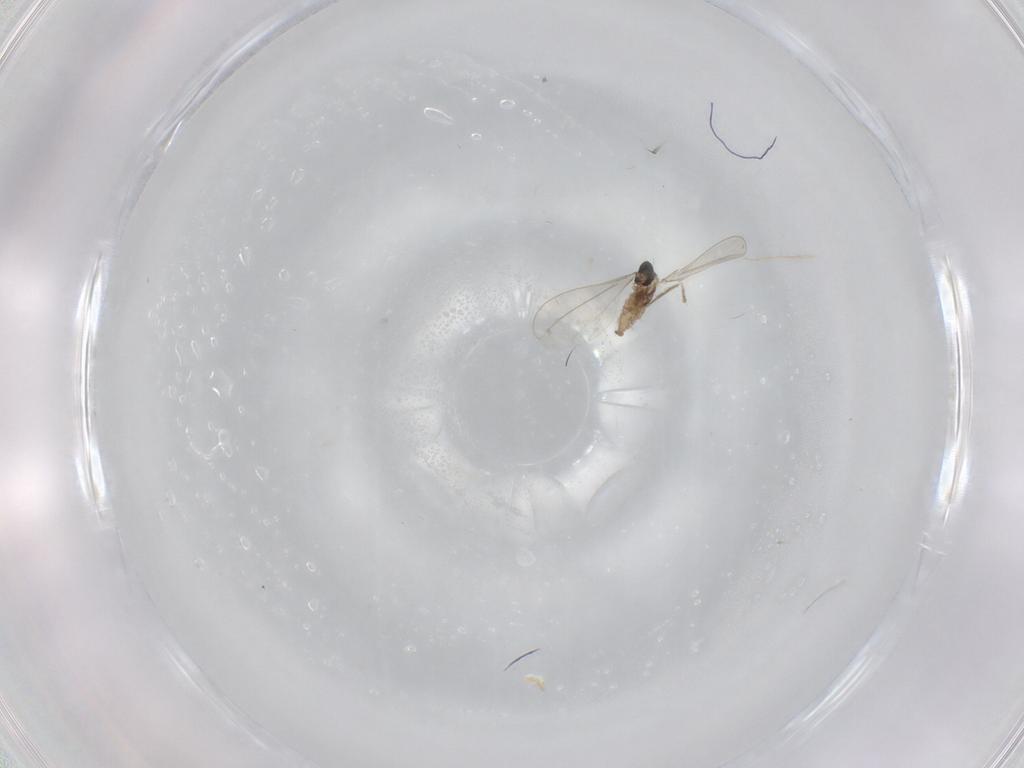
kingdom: Animalia
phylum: Arthropoda
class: Insecta
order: Diptera
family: Cecidomyiidae
